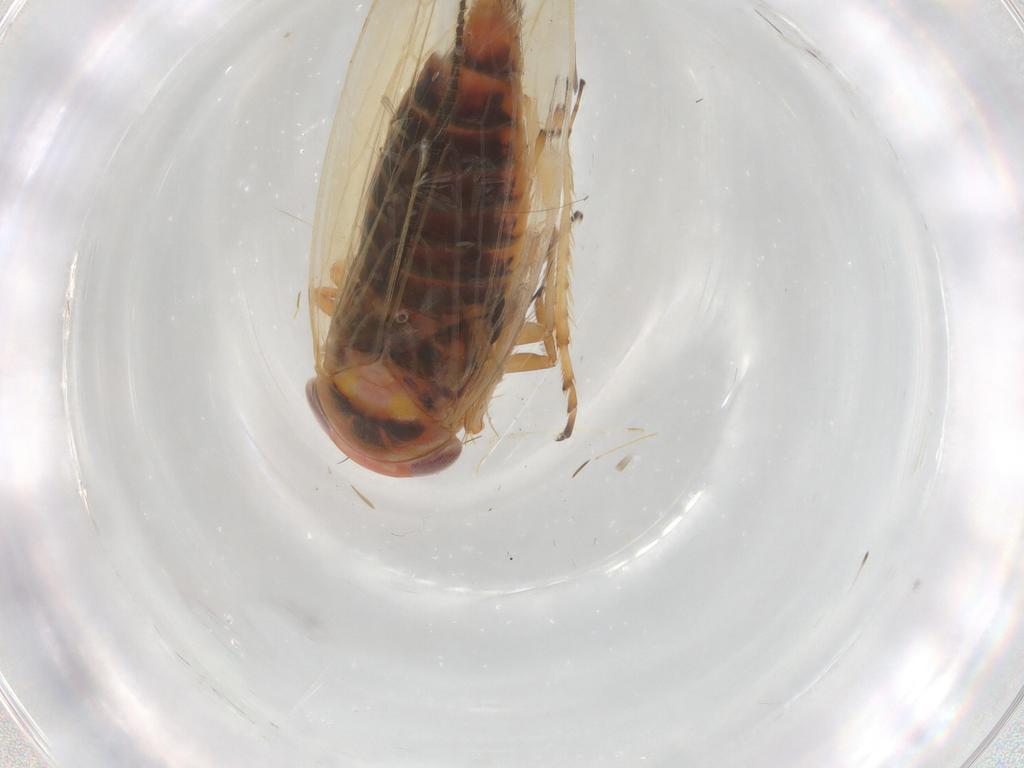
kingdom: Animalia
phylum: Arthropoda
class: Insecta
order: Hemiptera
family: Cicadellidae
